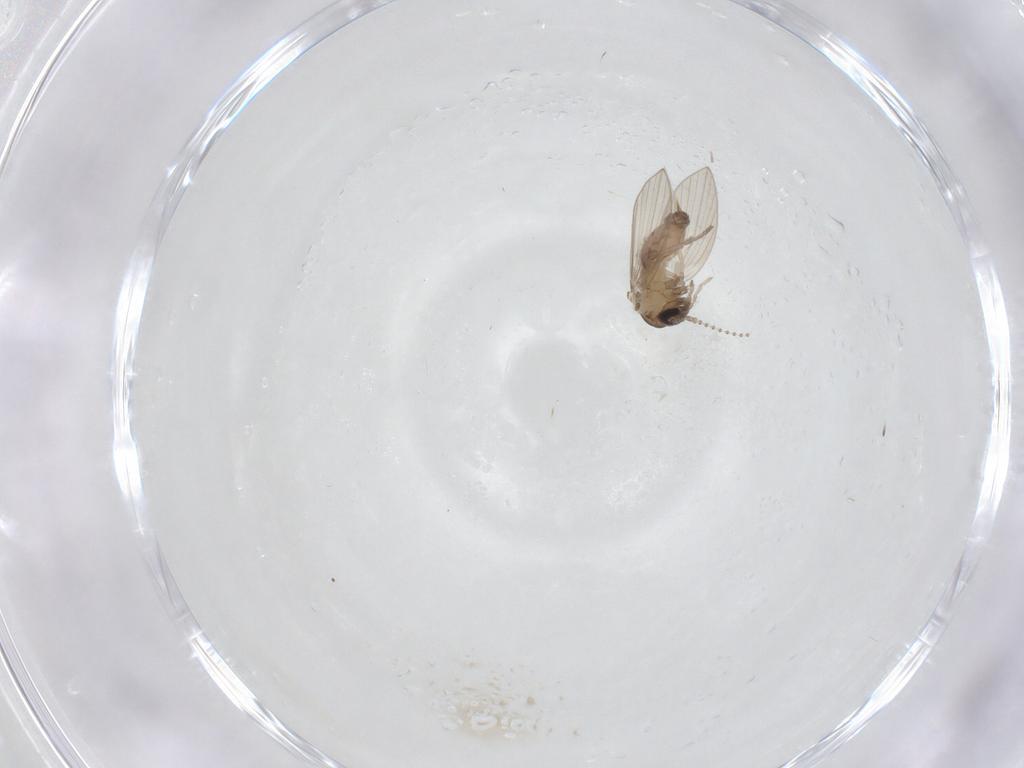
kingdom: Animalia
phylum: Arthropoda
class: Insecta
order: Diptera
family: Psychodidae
